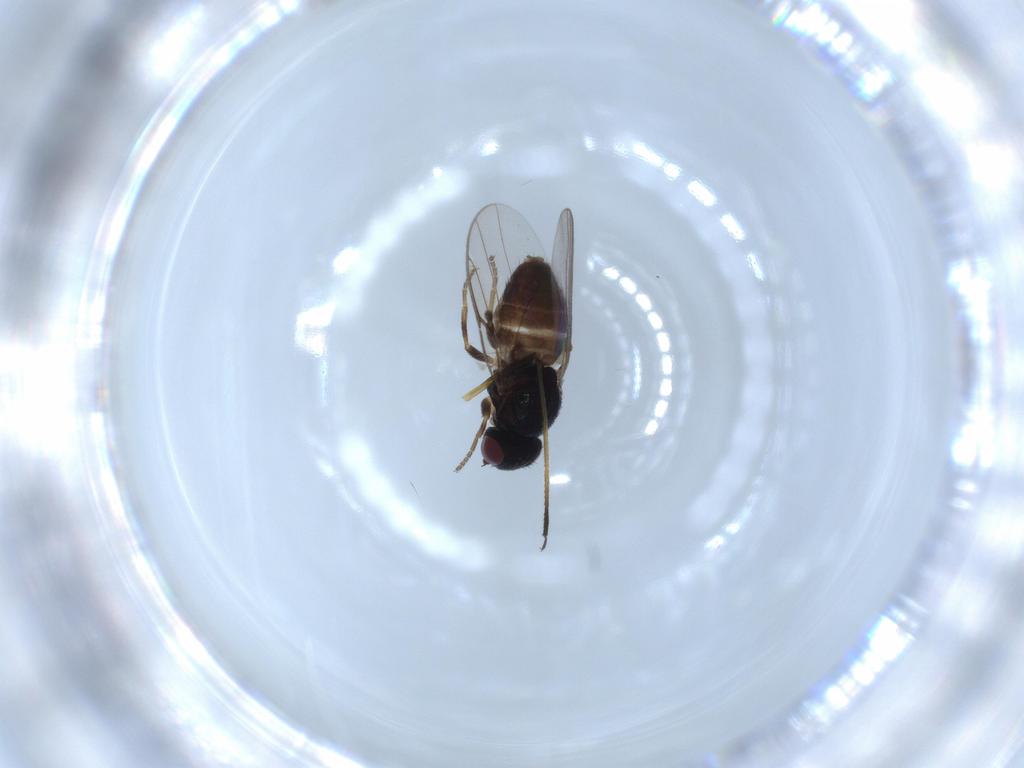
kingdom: Animalia
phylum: Arthropoda
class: Insecta
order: Diptera
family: Chloropidae
